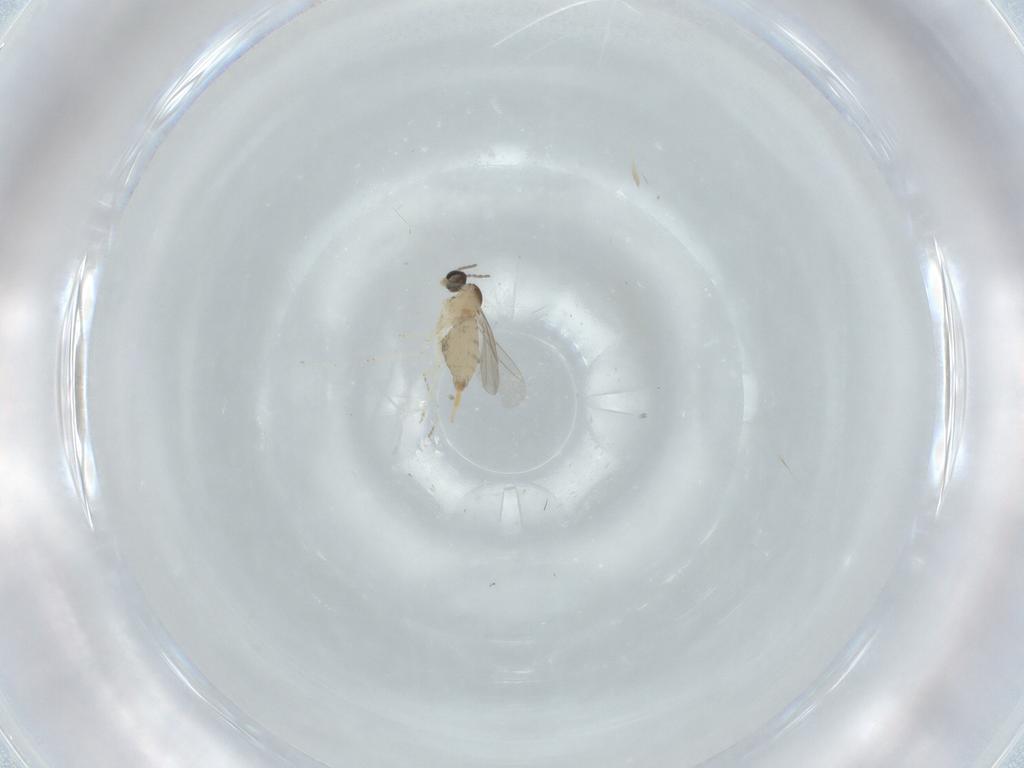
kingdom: Animalia
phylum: Arthropoda
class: Insecta
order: Diptera
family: Cecidomyiidae
